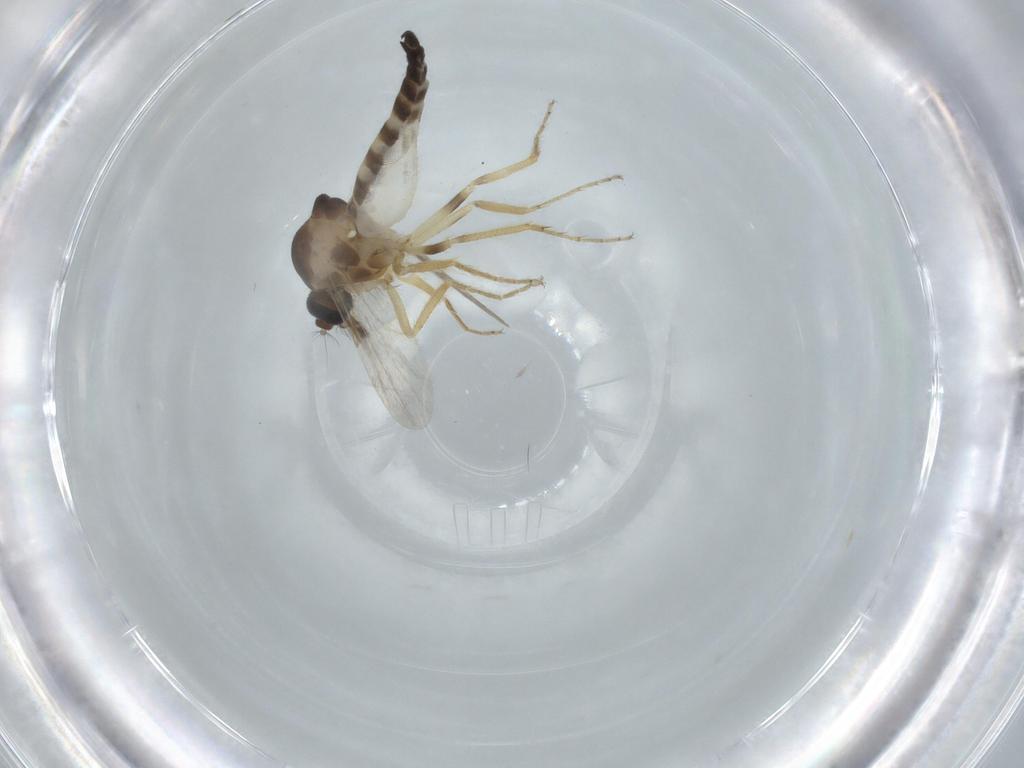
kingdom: Animalia
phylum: Arthropoda
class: Insecta
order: Diptera
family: Ceratopogonidae
